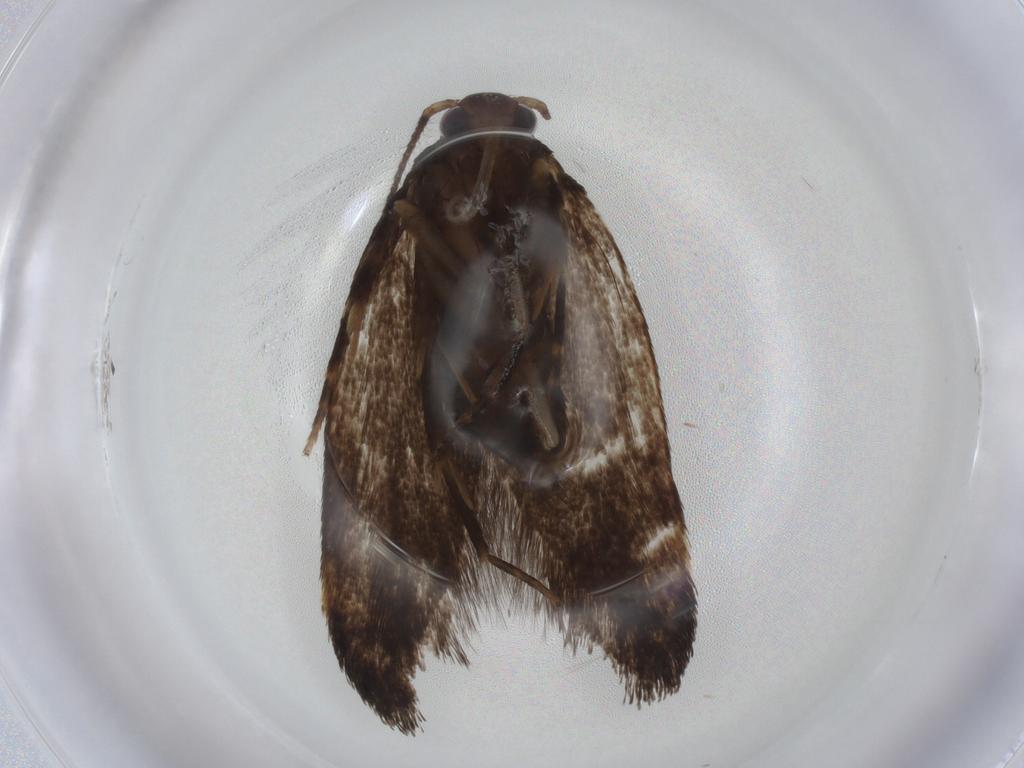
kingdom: Animalia
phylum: Arthropoda
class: Insecta
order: Lepidoptera
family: Oecophoridae
